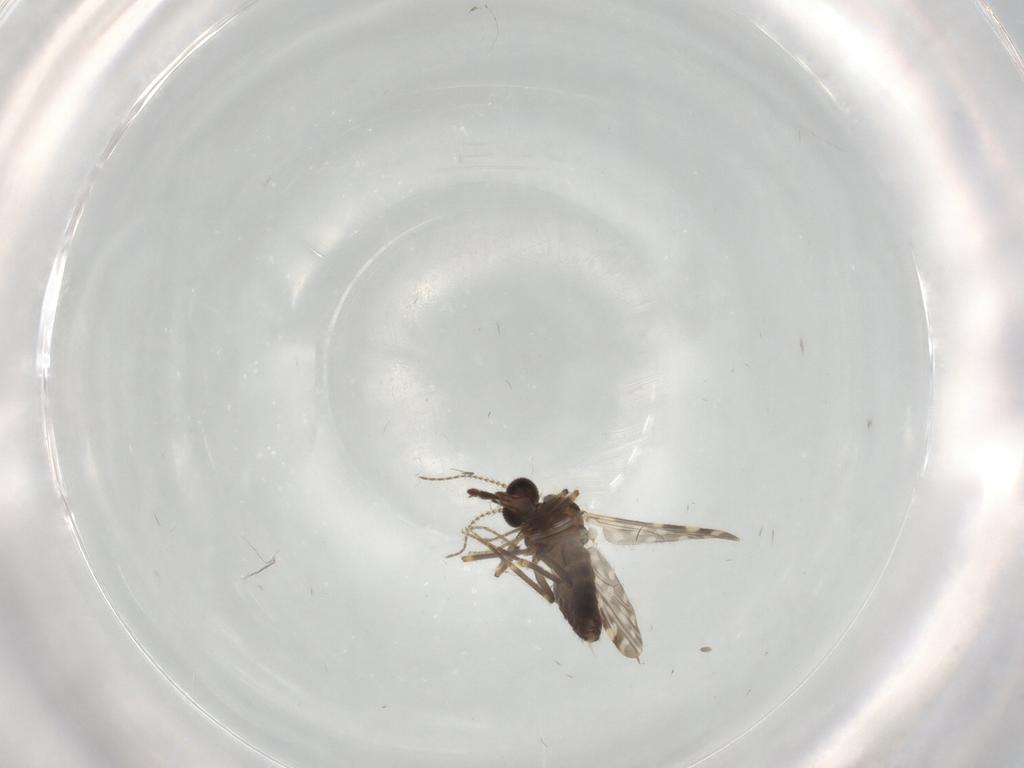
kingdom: Animalia
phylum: Arthropoda
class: Insecta
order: Diptera
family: Ceratopogonidae
